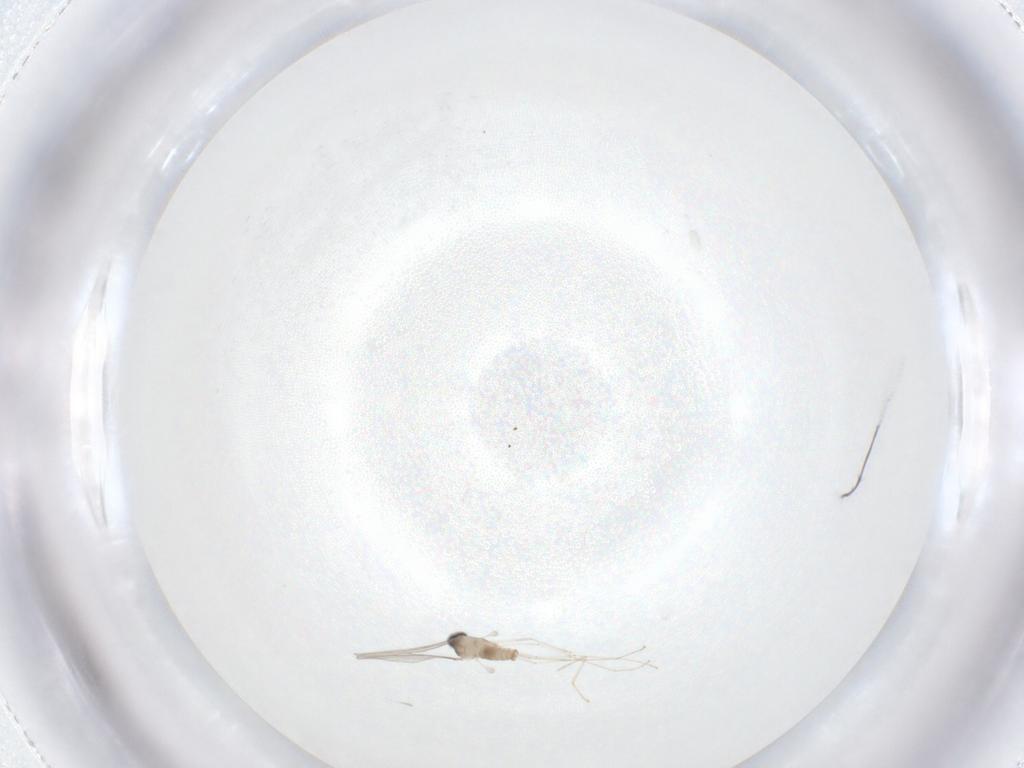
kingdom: Animalia
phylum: Arthropoda
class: Insecta
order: Diptera
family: Cecidomyiidae
